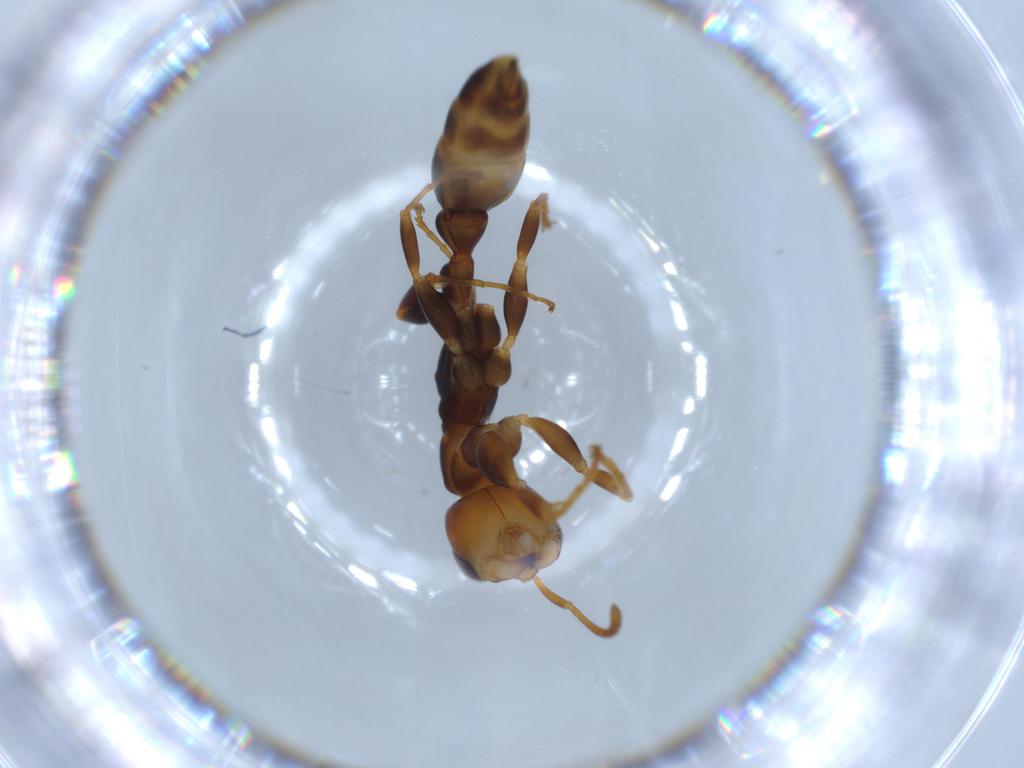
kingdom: Animalia
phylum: Arthropoda
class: Insecta
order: Hymenoptera
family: Formicidae
